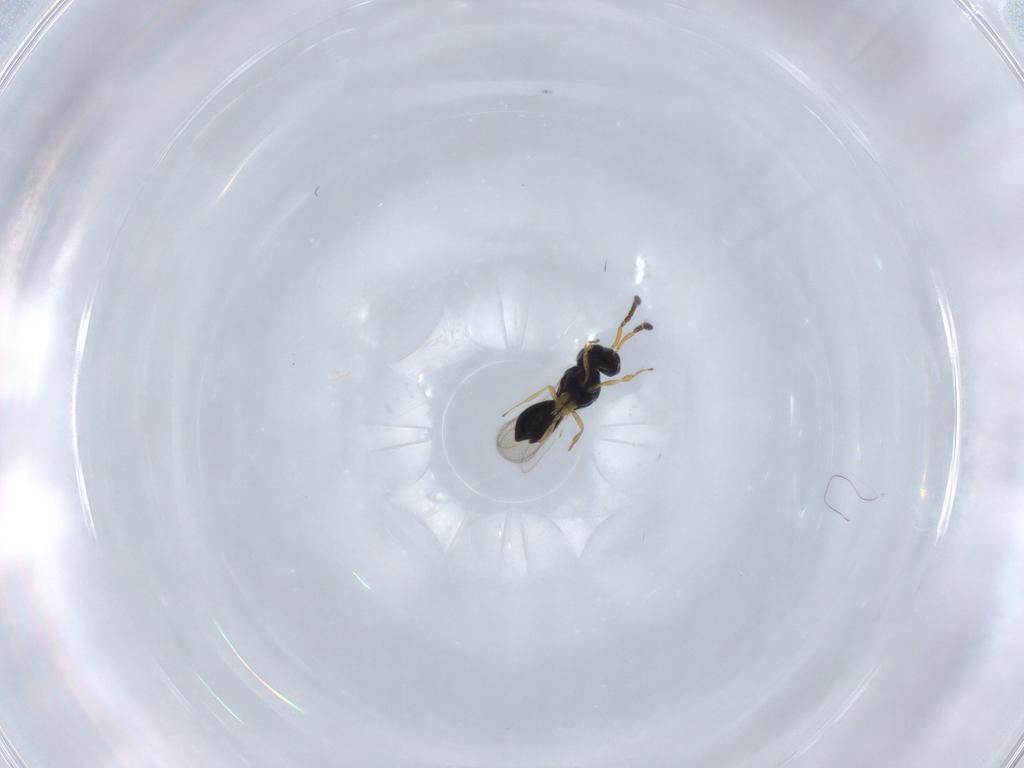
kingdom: Animalia
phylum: Arthropoda
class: Insecta
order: Hymenoptera
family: Scelionidae
